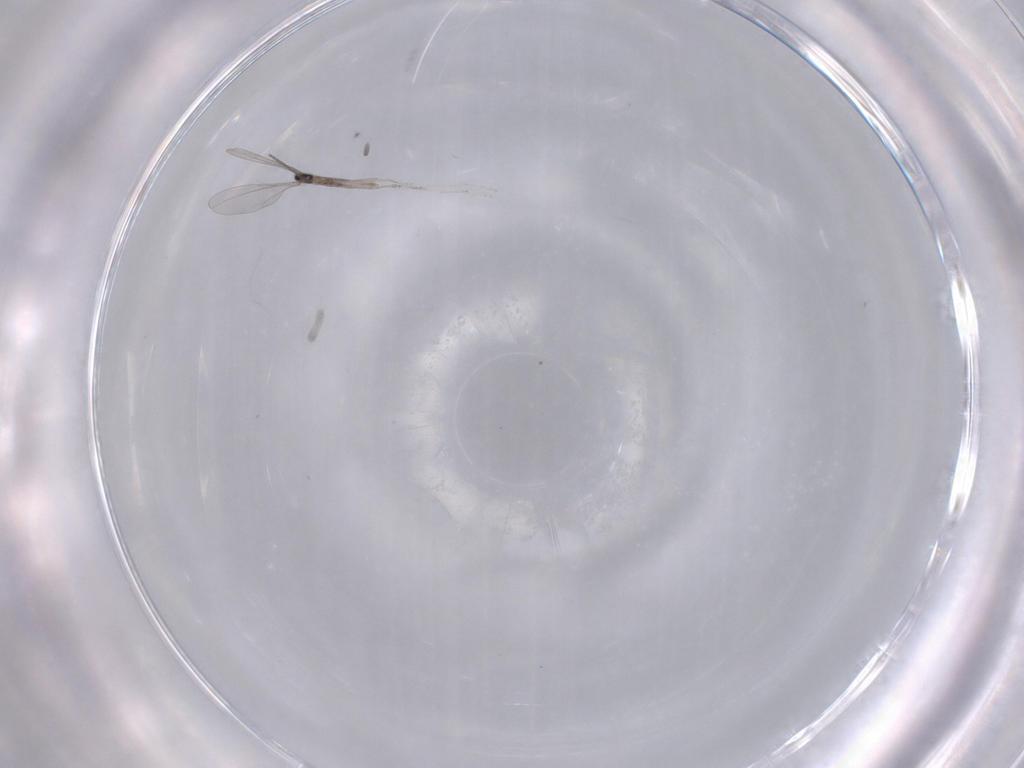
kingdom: Animalia
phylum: Arthropoda
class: Insecta
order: Diptera
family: Cecidomyiidae
